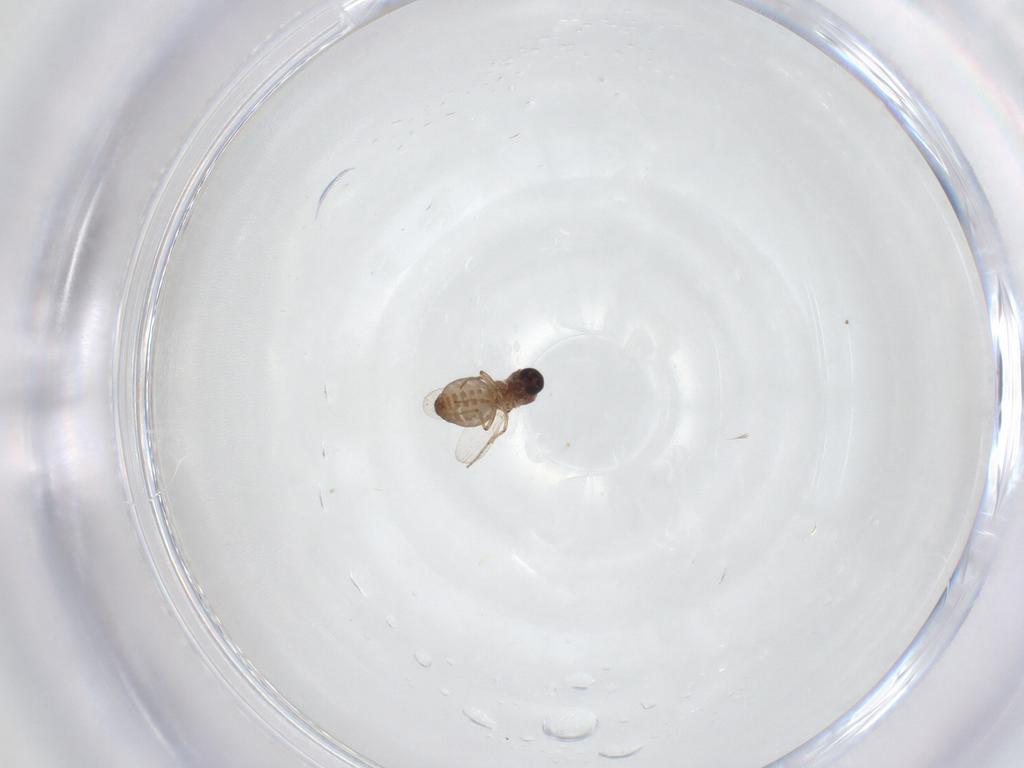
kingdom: Animalia
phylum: Arthropoda
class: Insecta
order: Diptera
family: Ceratopogonidae
